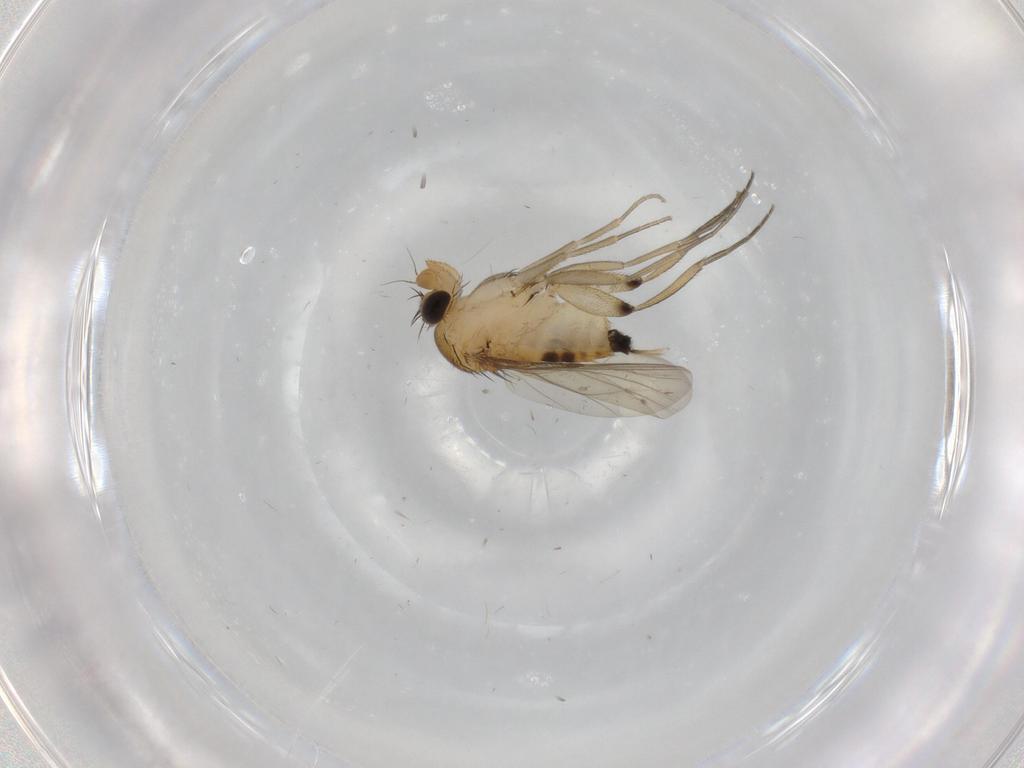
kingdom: Animalia
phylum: Arthropoda
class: Insecta
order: Diptera
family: Phoridae
